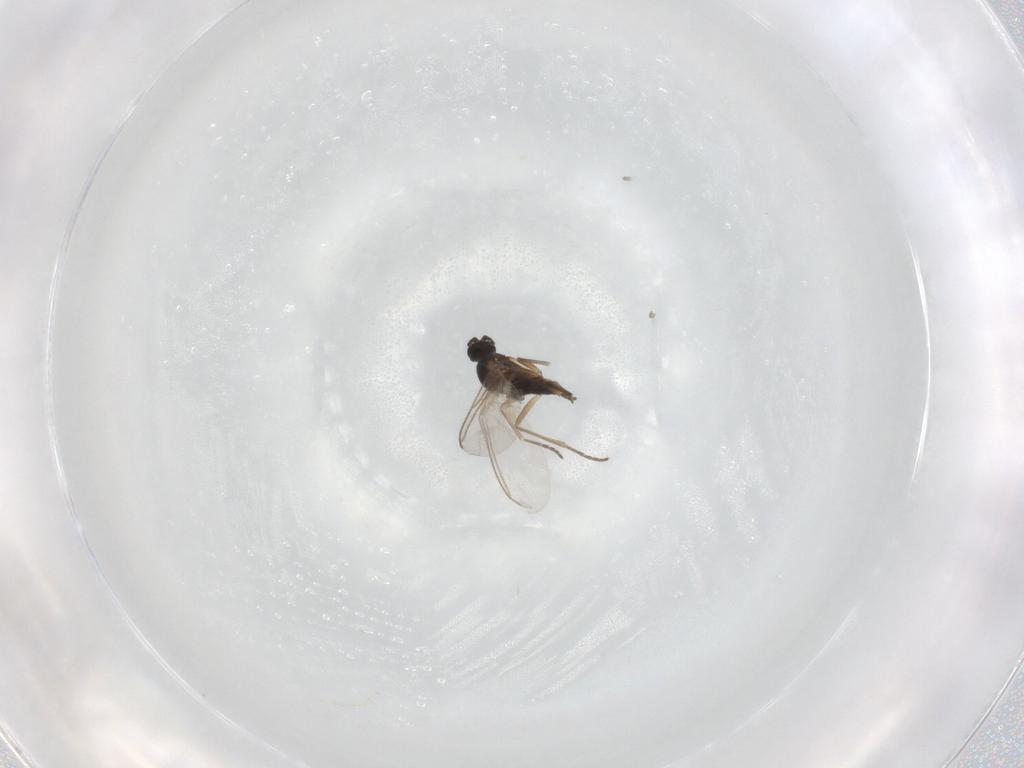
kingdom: Animalia
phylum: Arthropoda
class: Insecta
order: Diptera
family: Sciaridae
